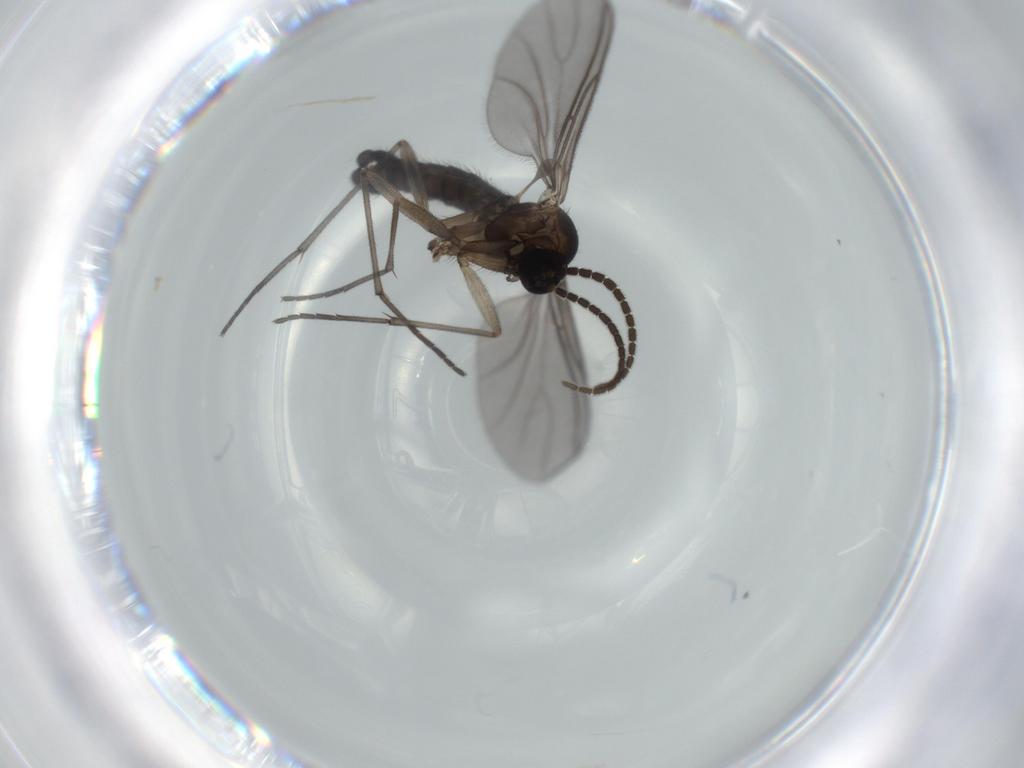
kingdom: Animalia
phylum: Arthropoda
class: Insecta
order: Diptera
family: Sciaridae
